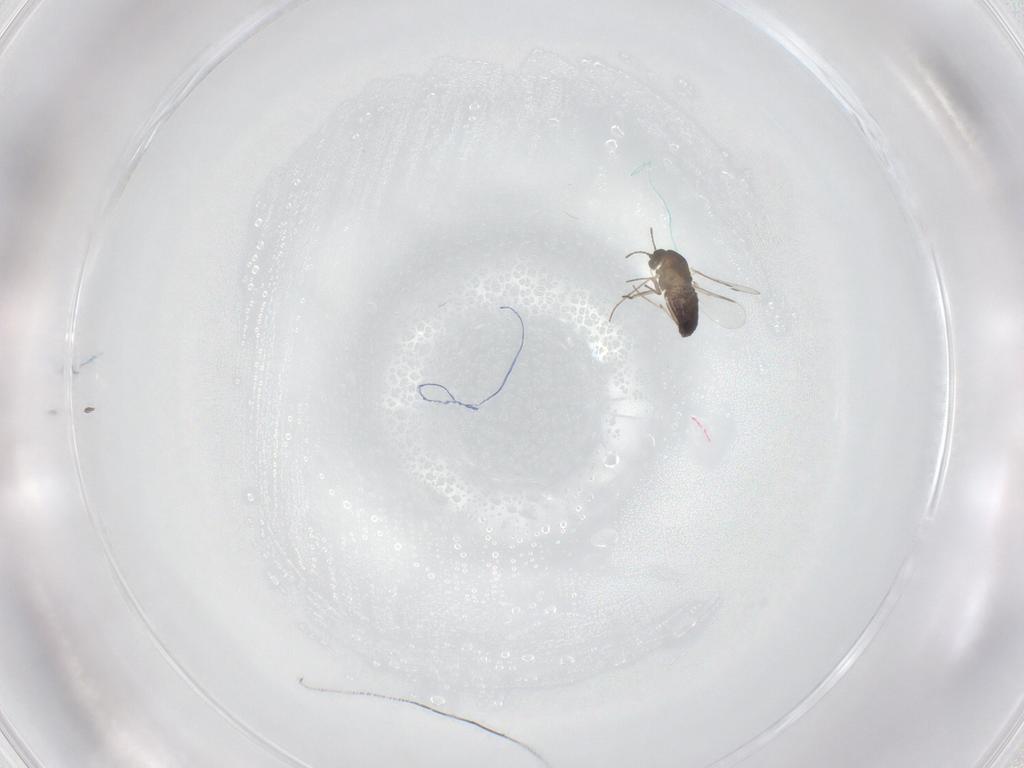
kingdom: Animalia
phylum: Arthropoda
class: Insecta
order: Diptera
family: Chironomidae
